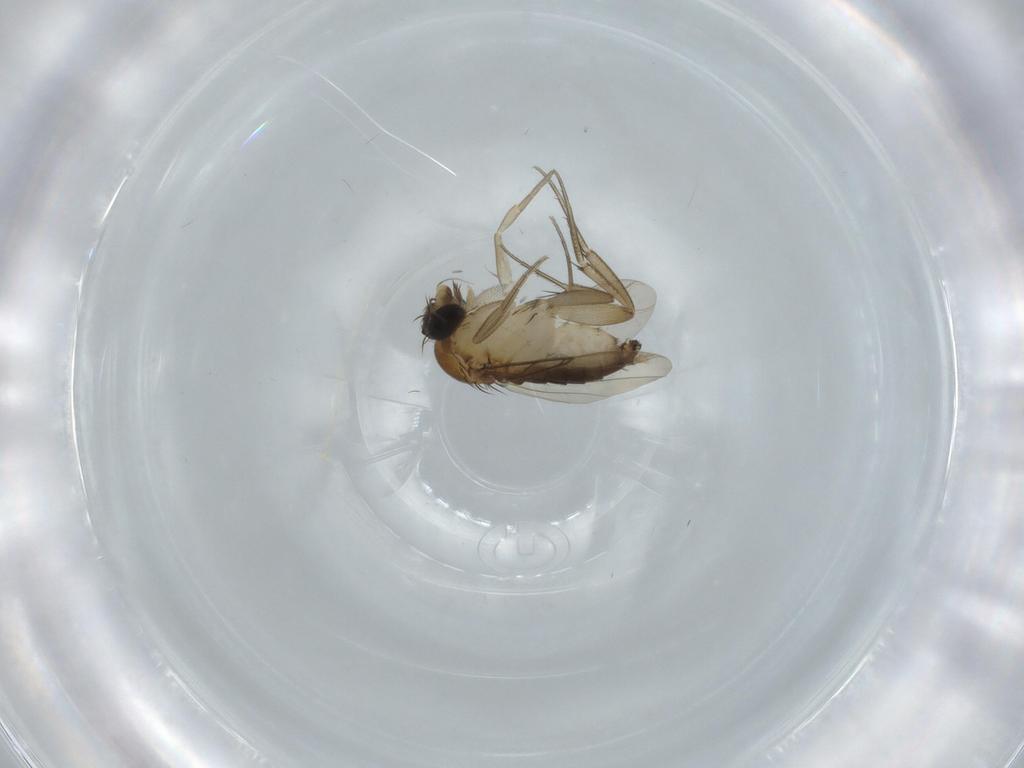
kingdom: Animalia
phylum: Arthropoda
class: Insecta
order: Diptera
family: Phoridae
